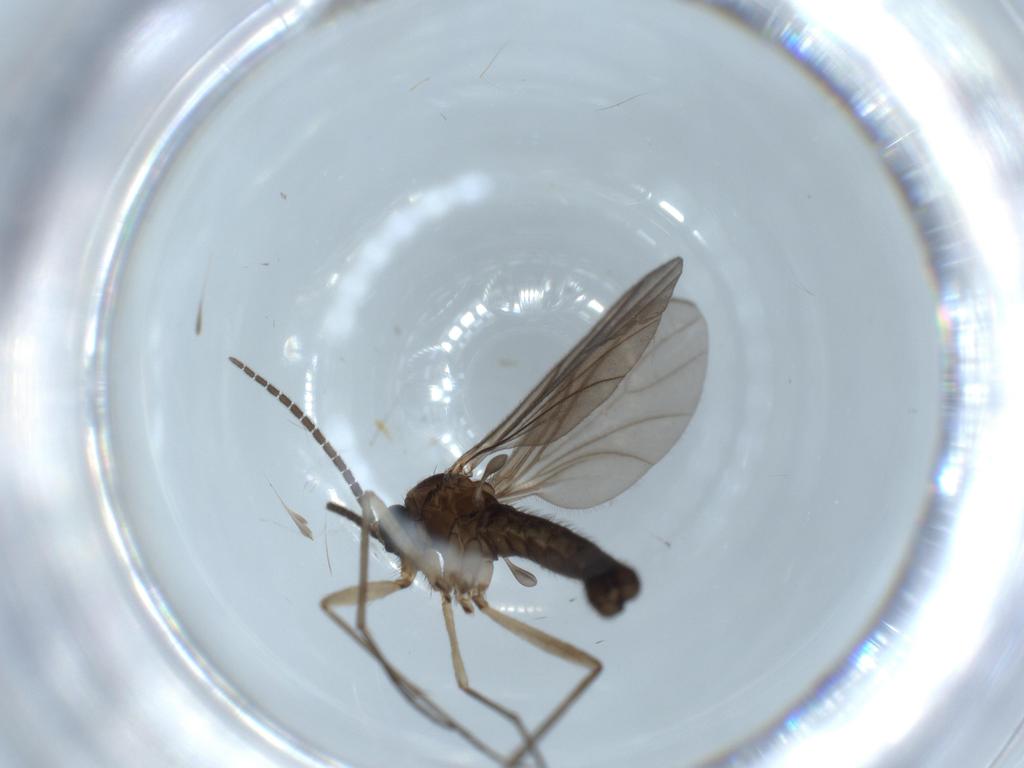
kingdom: Animalia
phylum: Arthropoda
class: Insecta
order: Diptera
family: Sciaridae
